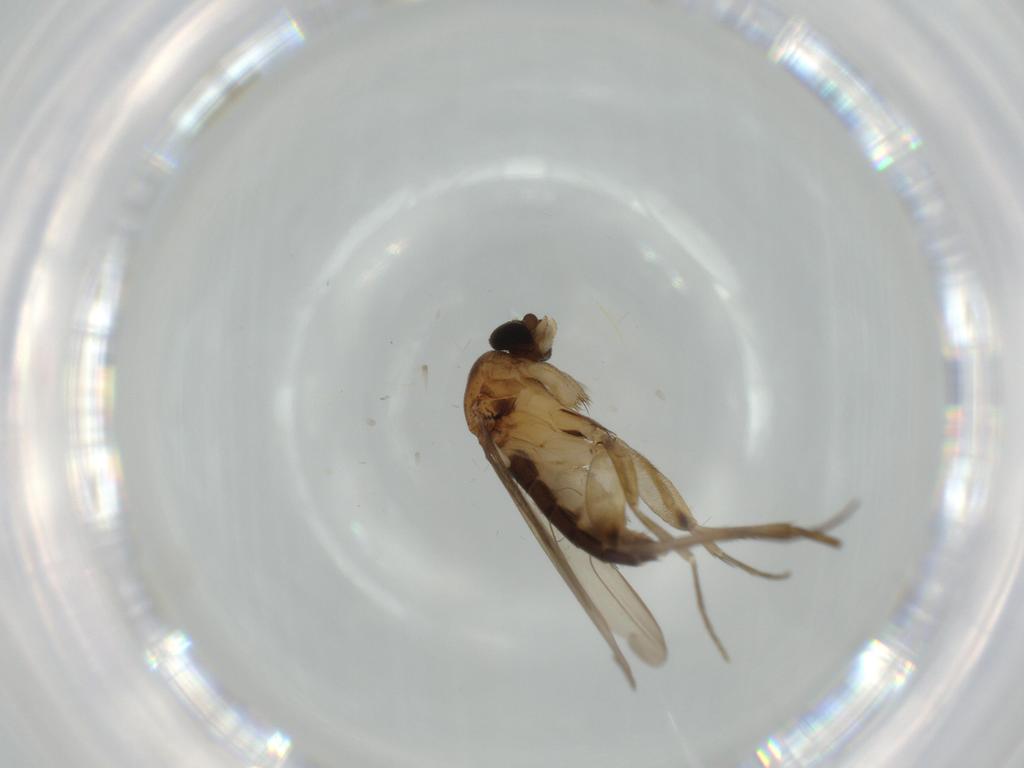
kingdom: Animalia
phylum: Arthropoda
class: Insecta
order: Diptera
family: Phoridae
